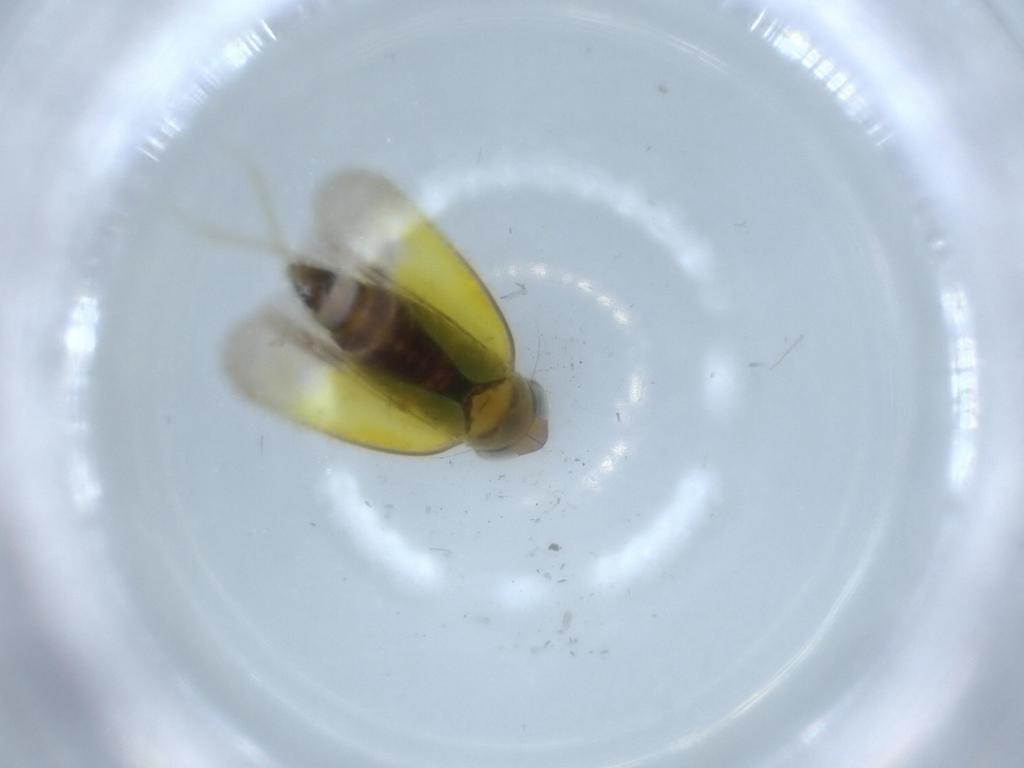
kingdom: Animalia
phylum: Arthropoda
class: Insecta
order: Hemiptera
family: Cicadellidae
